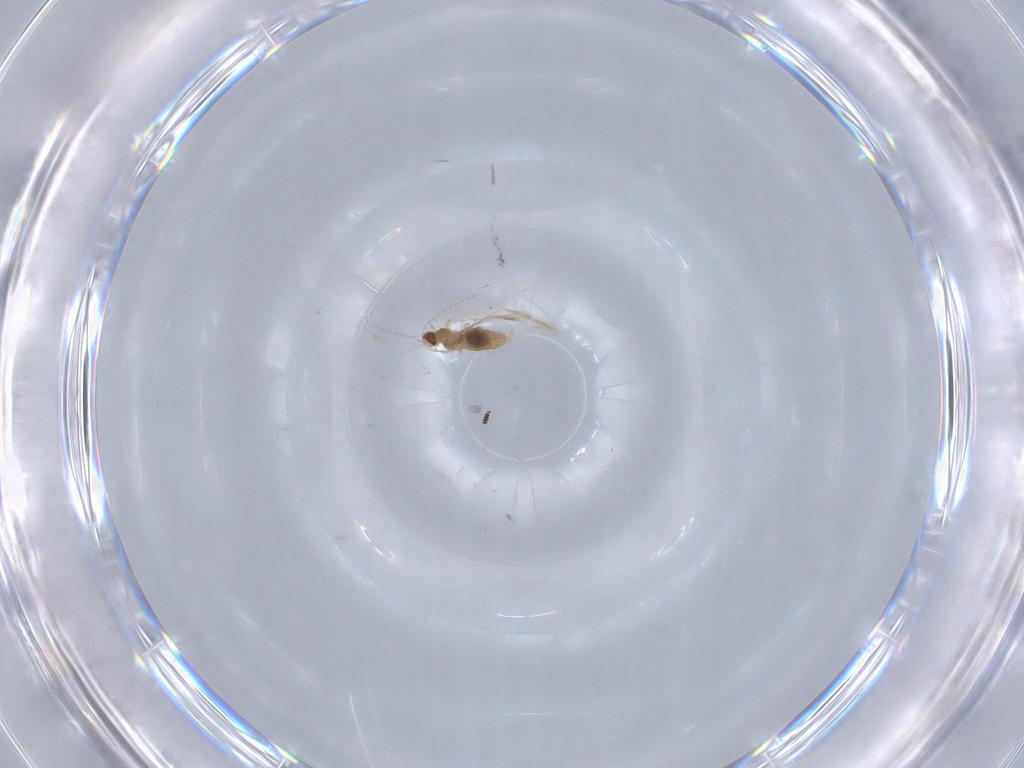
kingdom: Animalia
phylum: Arthropoda
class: Insecta
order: Diptera
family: Scatopsidae
